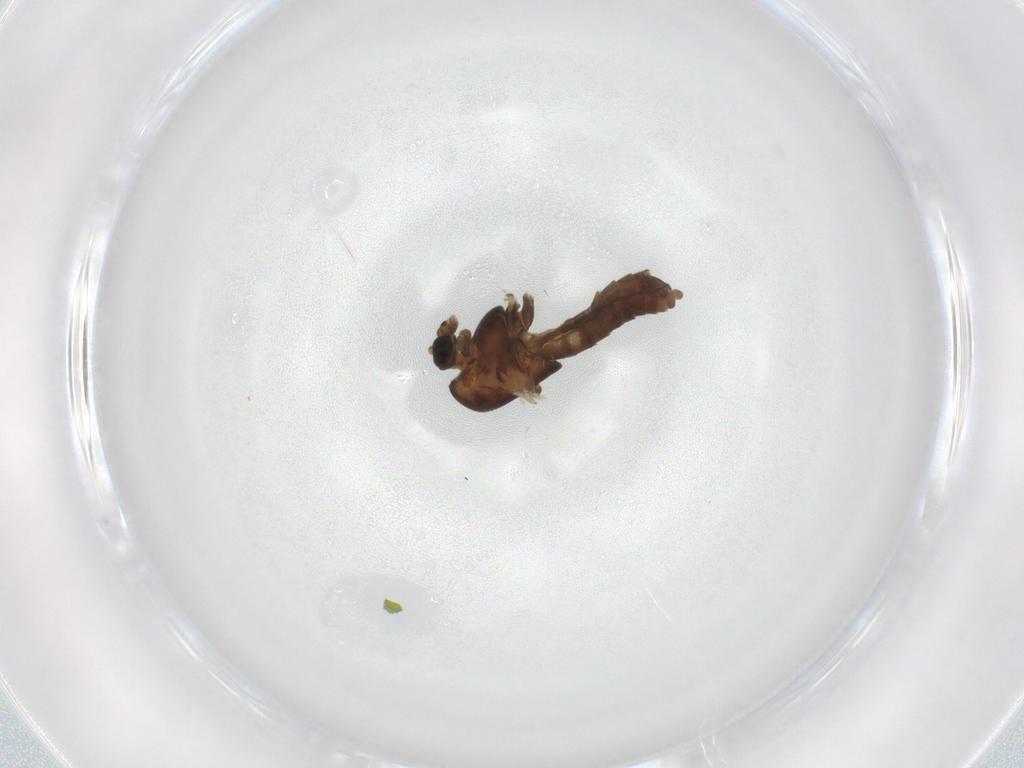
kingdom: Animalia
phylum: Arthropoda
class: Insecta
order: Diptera
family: Chironomidae
